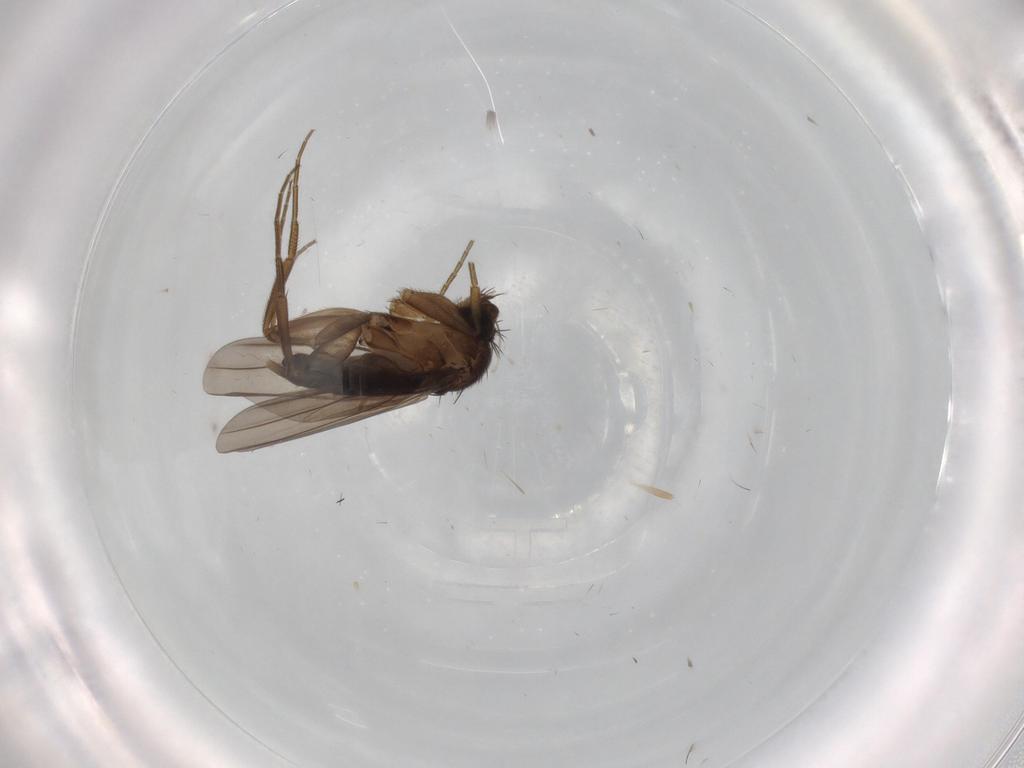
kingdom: Animalia
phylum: Arthropoda
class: Insecta
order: Diptera
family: Phoridae
